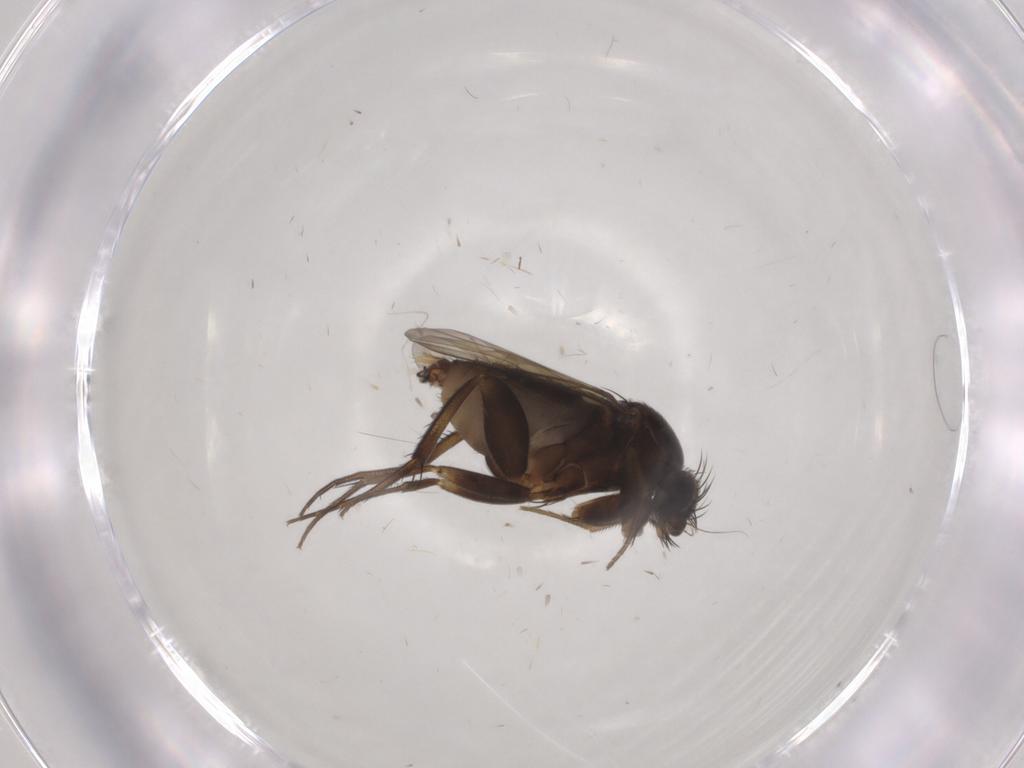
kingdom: Animalia
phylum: Arthropoda
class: Insecta
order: Diptera
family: Phoridae
